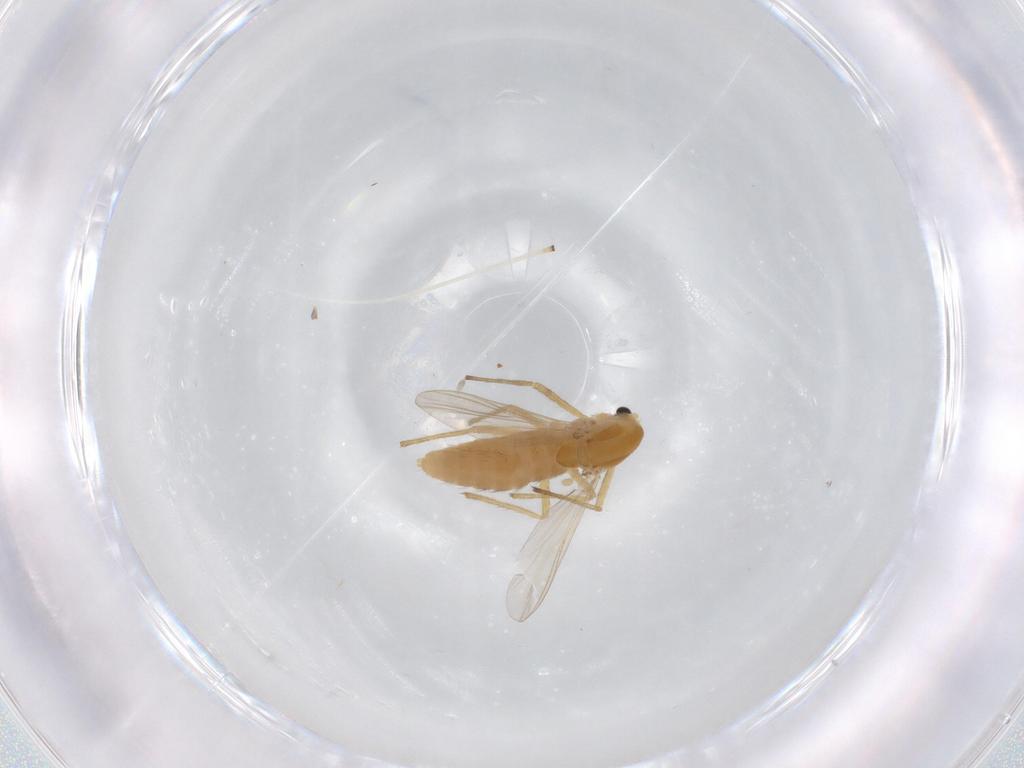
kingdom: Animalia
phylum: Arthropoda
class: Insecta
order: Diptera
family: Chironomidae
